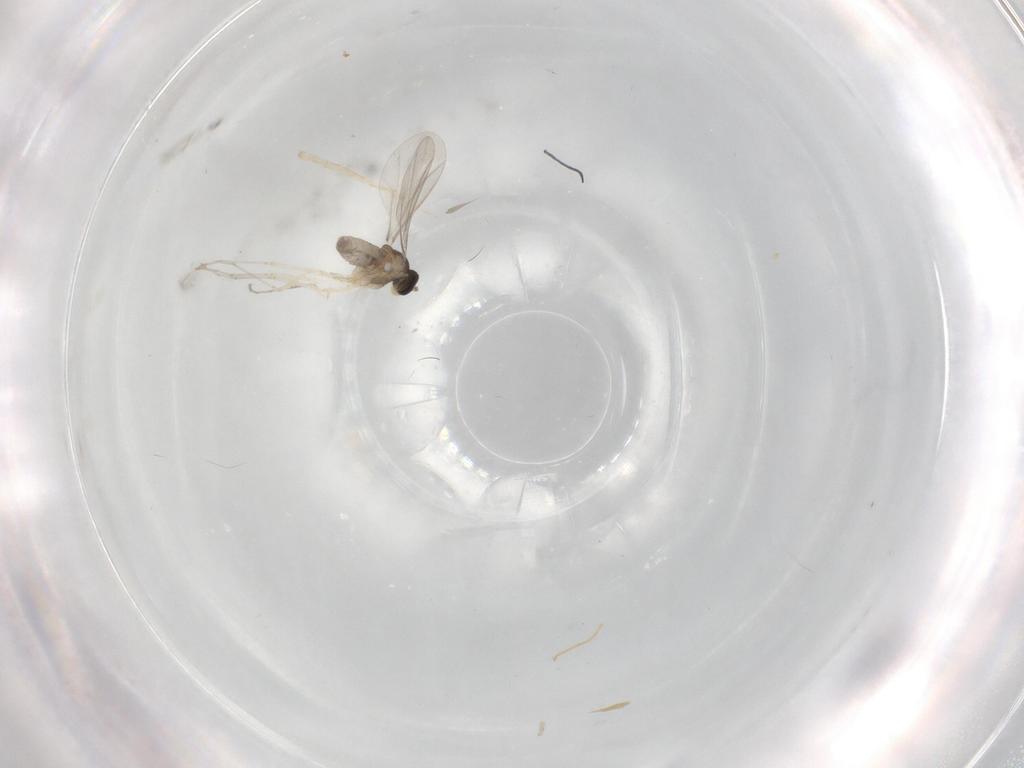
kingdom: Animalia
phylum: Arthropoda
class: Insecta
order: Diptera
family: Cecidomyiidae
